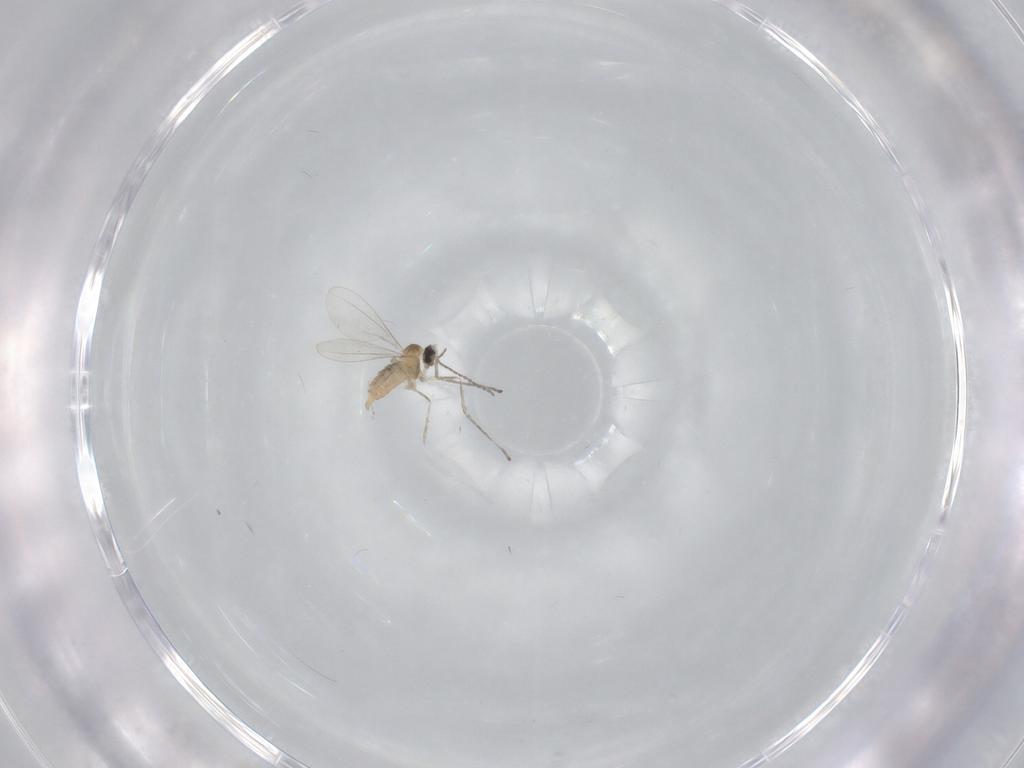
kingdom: Animalia
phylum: Arthropoda
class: Insecta
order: Diptera
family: Cecidomyiidae
